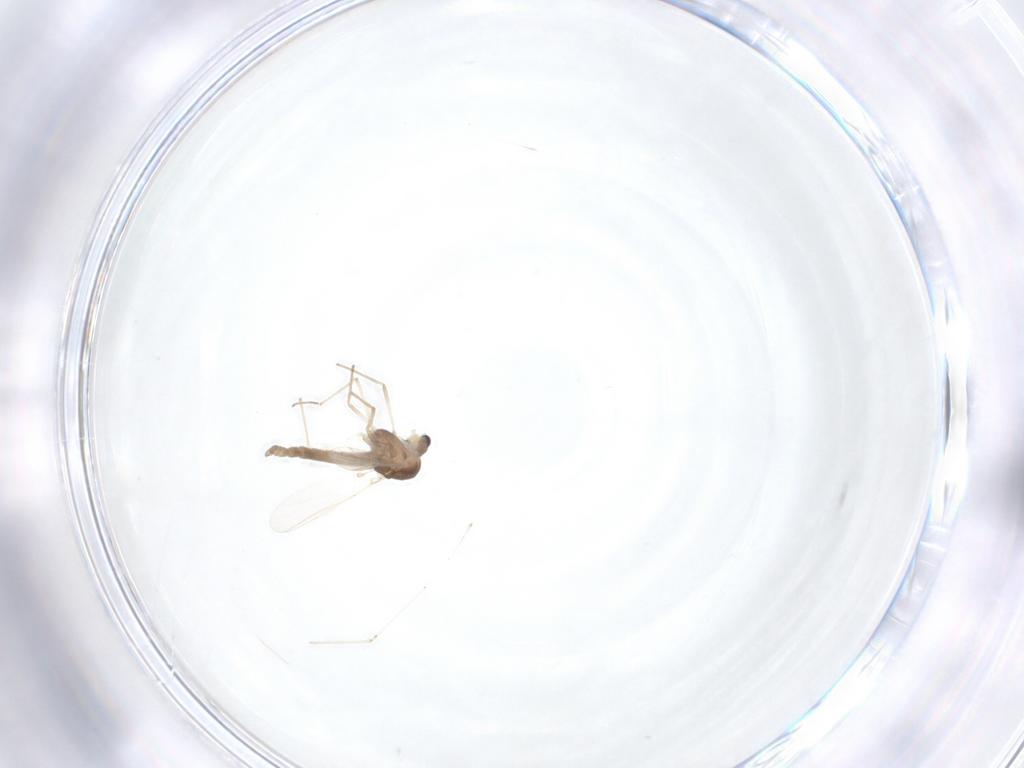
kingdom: Animalia
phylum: Arthropoda
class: Insecta
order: Diptera
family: Chironomidae
